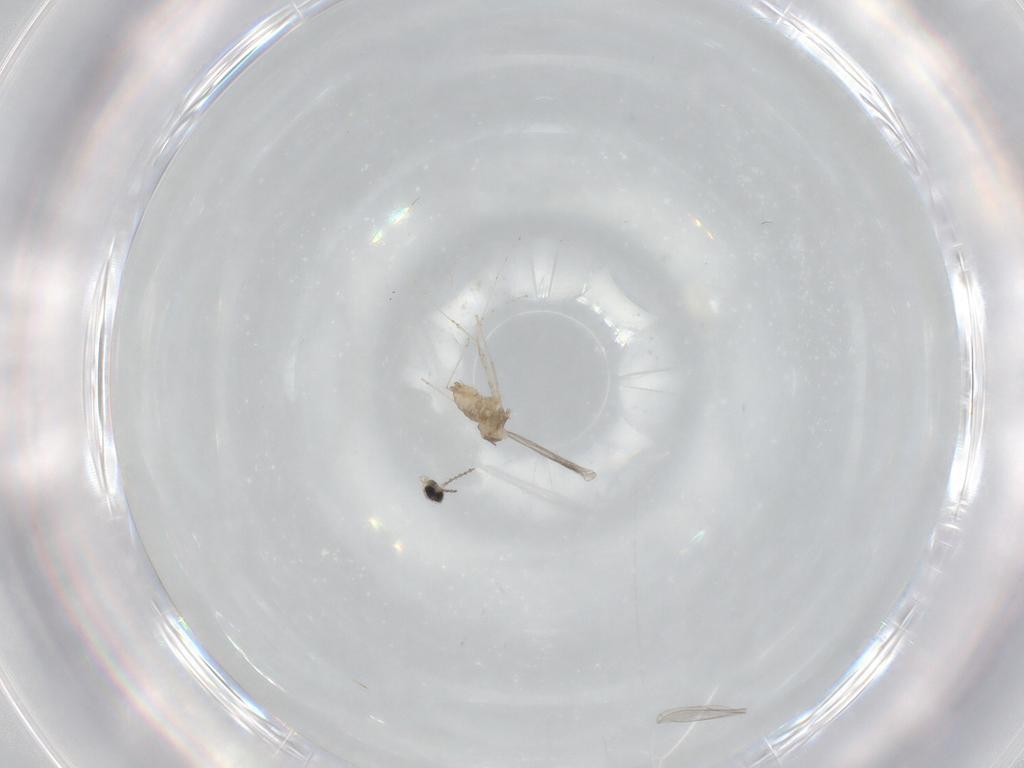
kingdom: Animalia
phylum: Arthropoda
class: Insecta
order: Diptera
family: Cecidomyiidae
